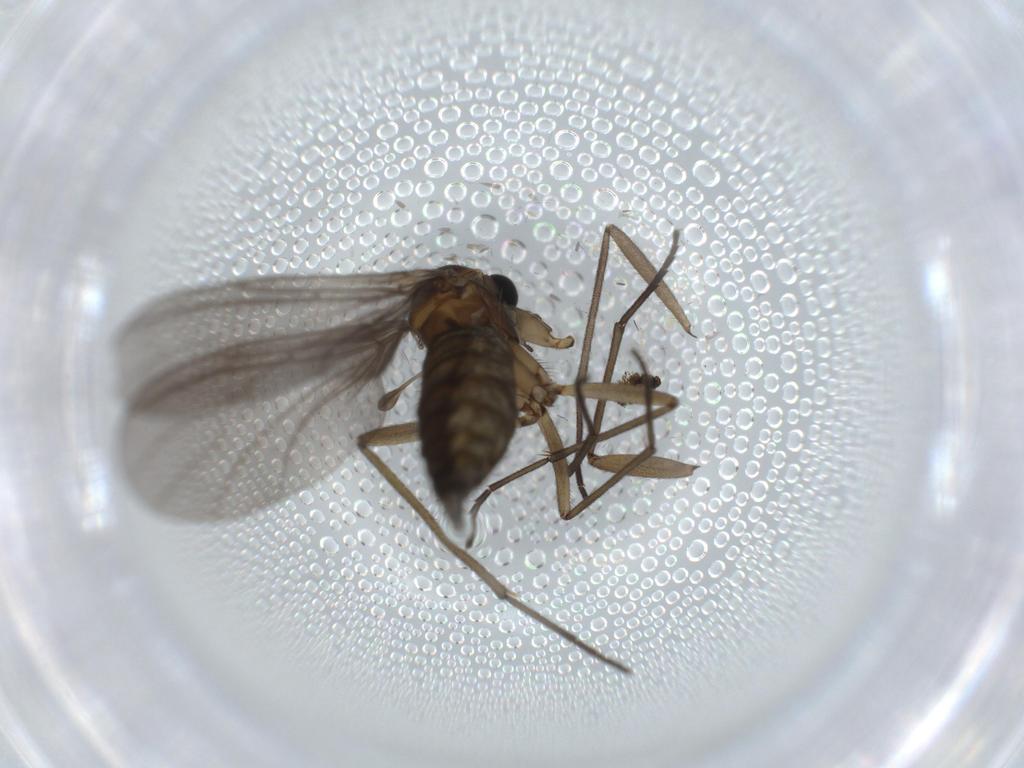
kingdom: Animalia
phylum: Arthropoda
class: Insecta
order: Diptera
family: Sciaridae
